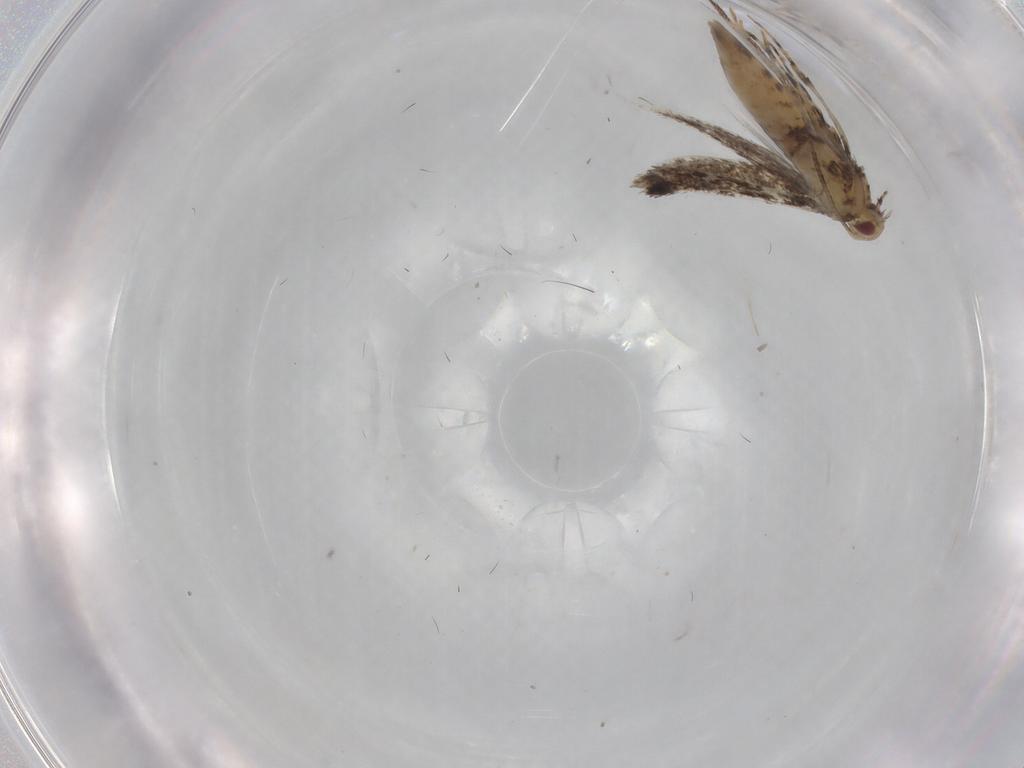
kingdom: Animalia
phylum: Arthropoda
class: Insecta
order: Lepidoptera
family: Gracillariidae
